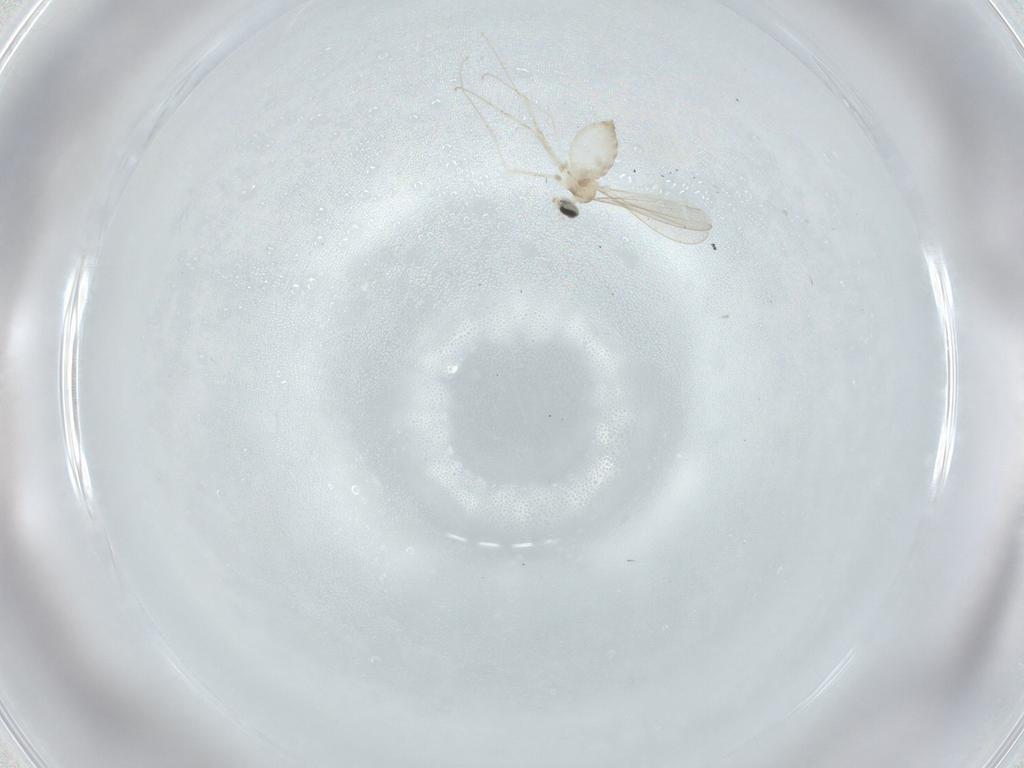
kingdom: Animalia
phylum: Arthropoda
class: Insecta
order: Diptera
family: Cecidomyiidae
